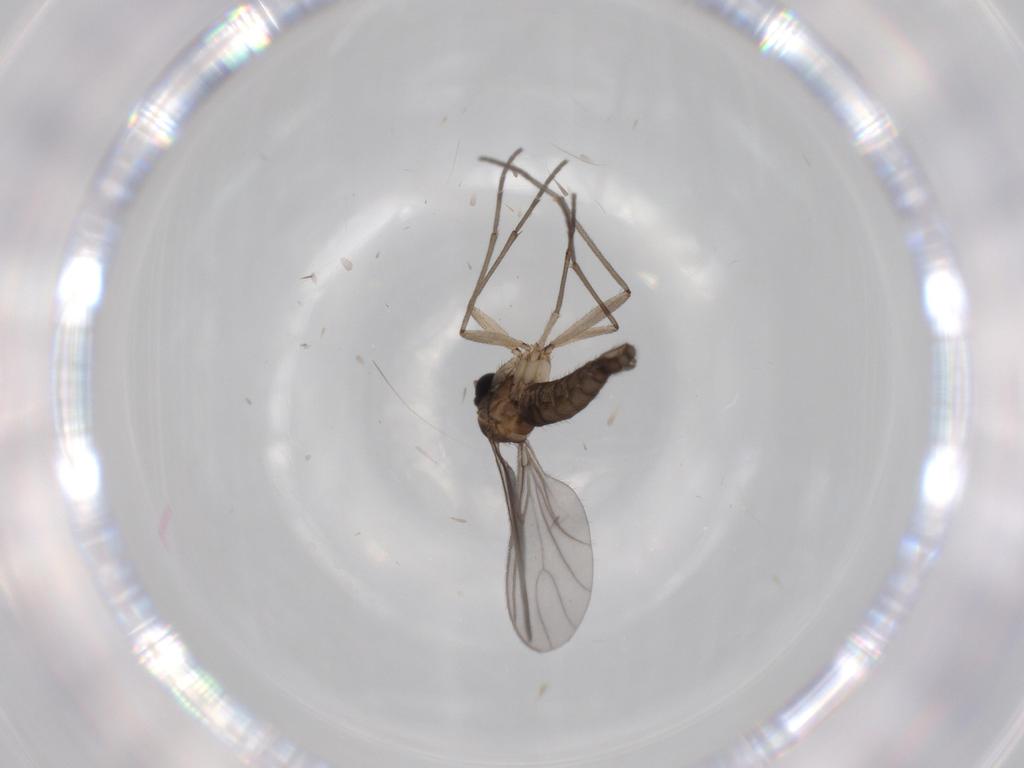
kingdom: Animalia
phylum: Arthropoda
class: Insecta
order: Diptera
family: Sciaridae
